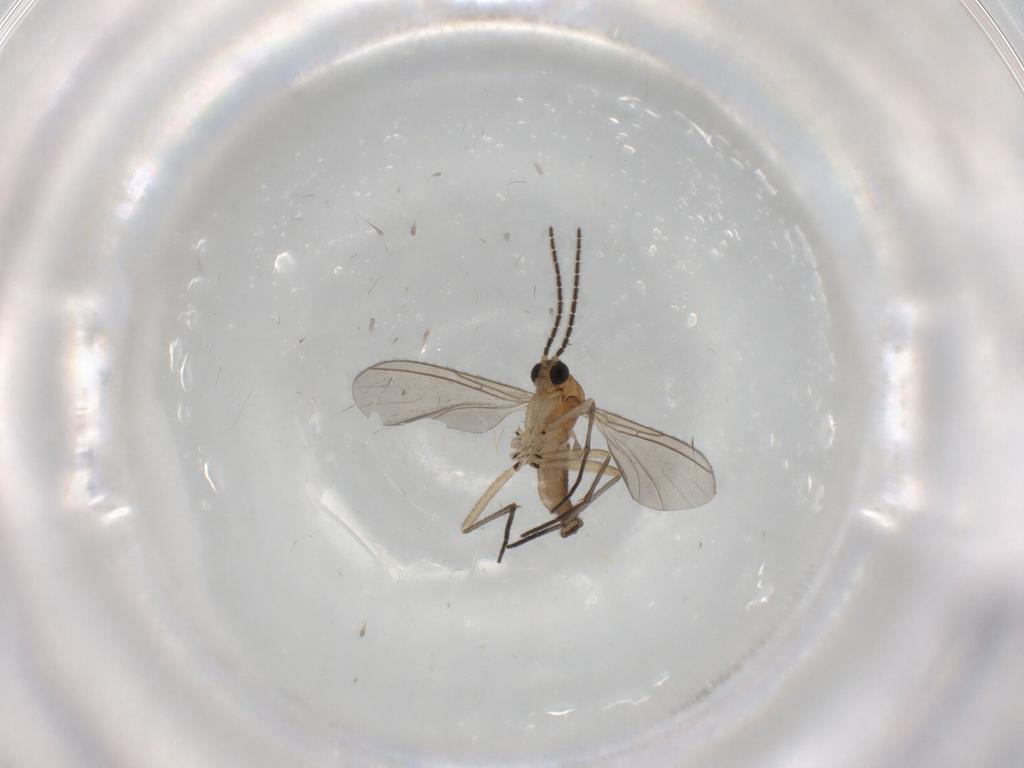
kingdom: Animalia
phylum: Arthropoda
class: Insecta
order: Diptera
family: Sciaridae
